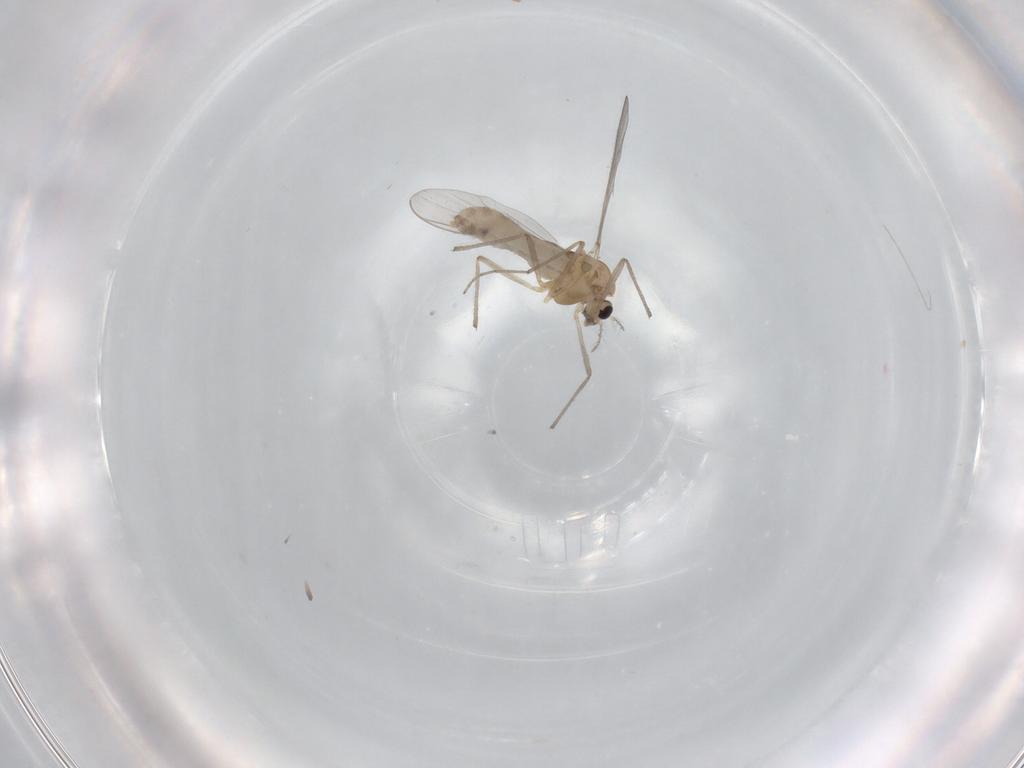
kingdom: Animalia
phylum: Arthropoda
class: Insecta
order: Diptera
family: Chironomidae
